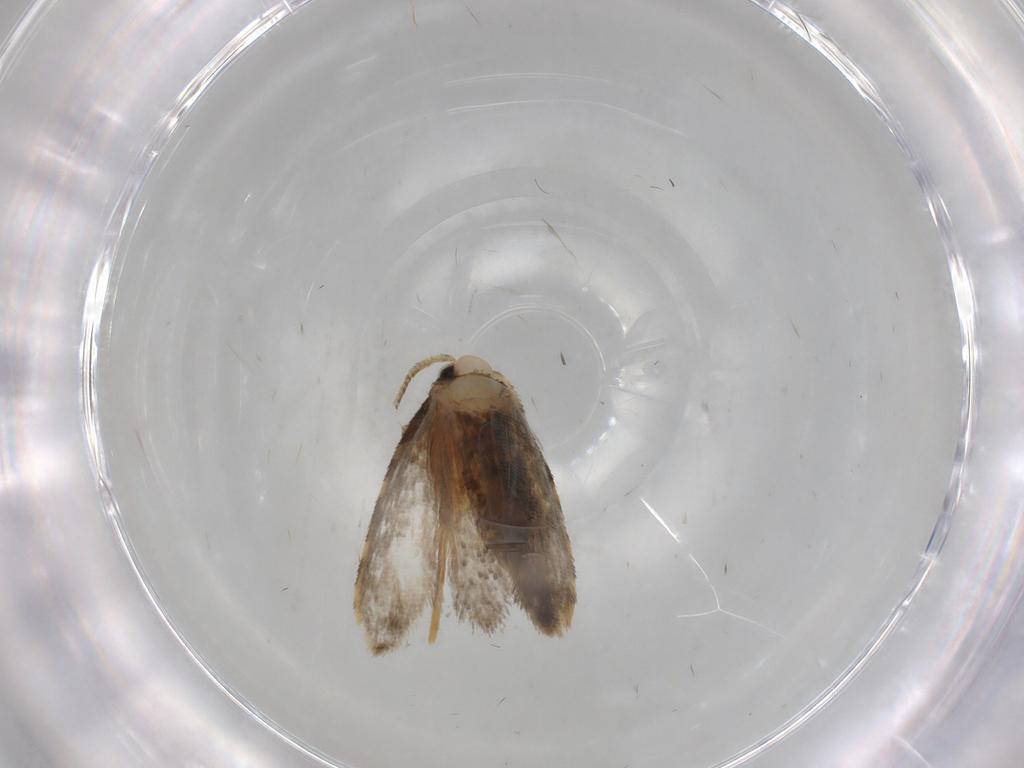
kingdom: Animalia
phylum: Arthropoda
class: Insecta
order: Lepidoptera
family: Psychidae
